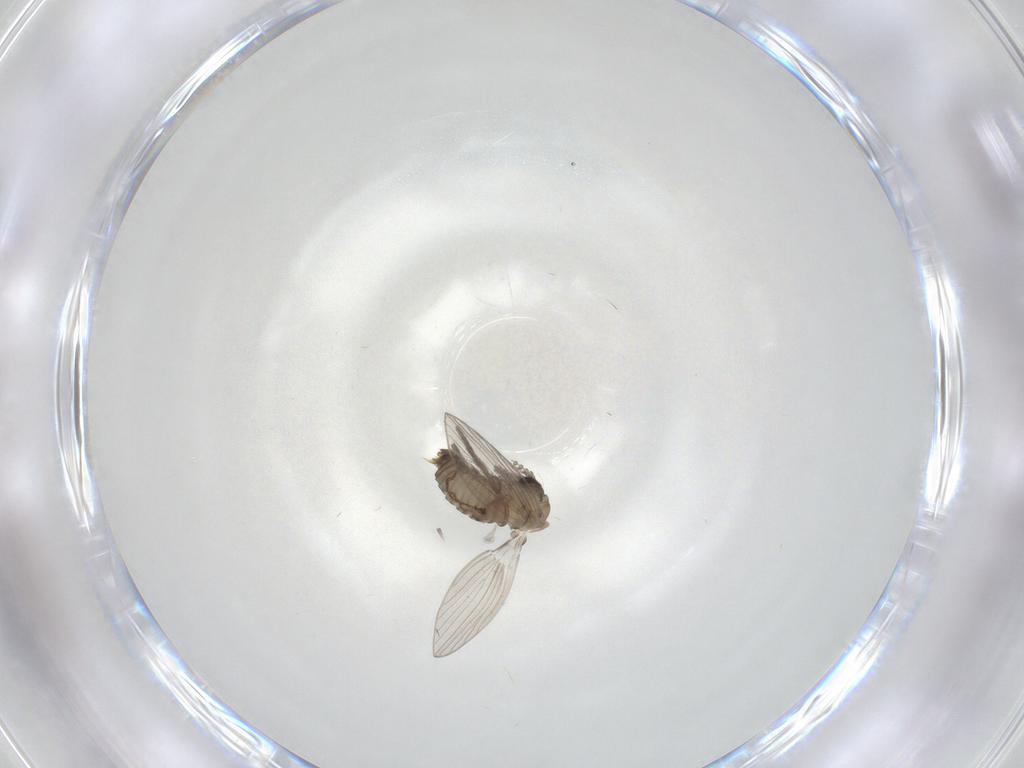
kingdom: Animalia
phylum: Arthropoda
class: Insecta
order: Diptera
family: Psychodidae
